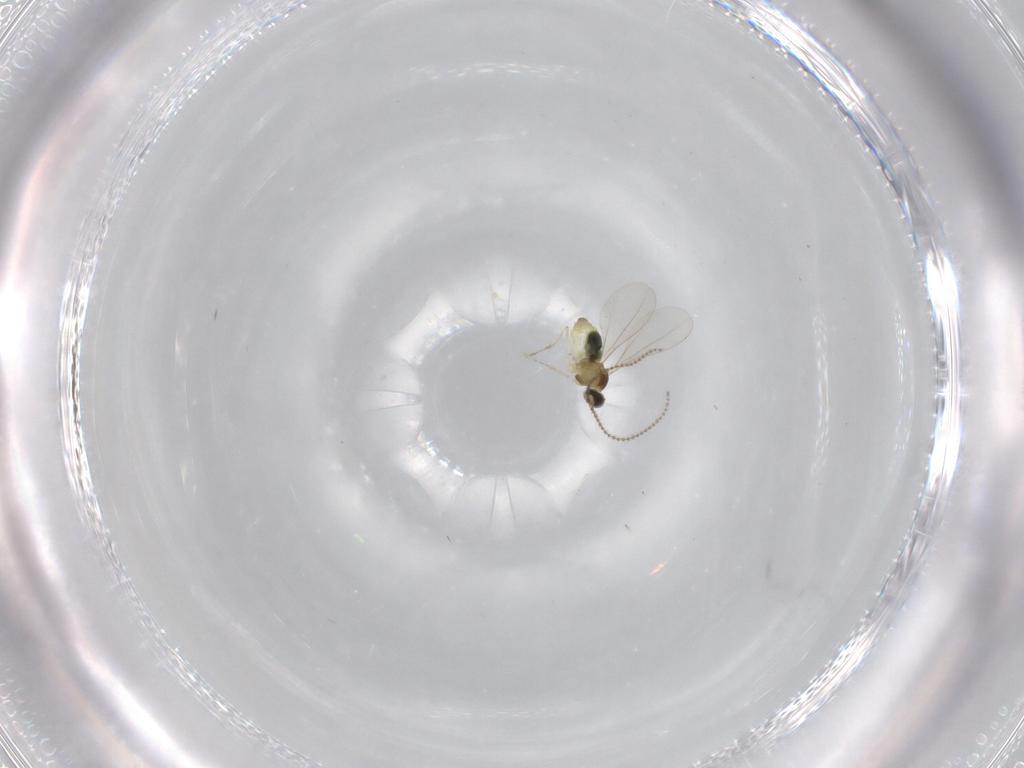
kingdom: Animalia
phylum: Arthropoda
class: Insecta
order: Diptera
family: Cecidomyiidae
